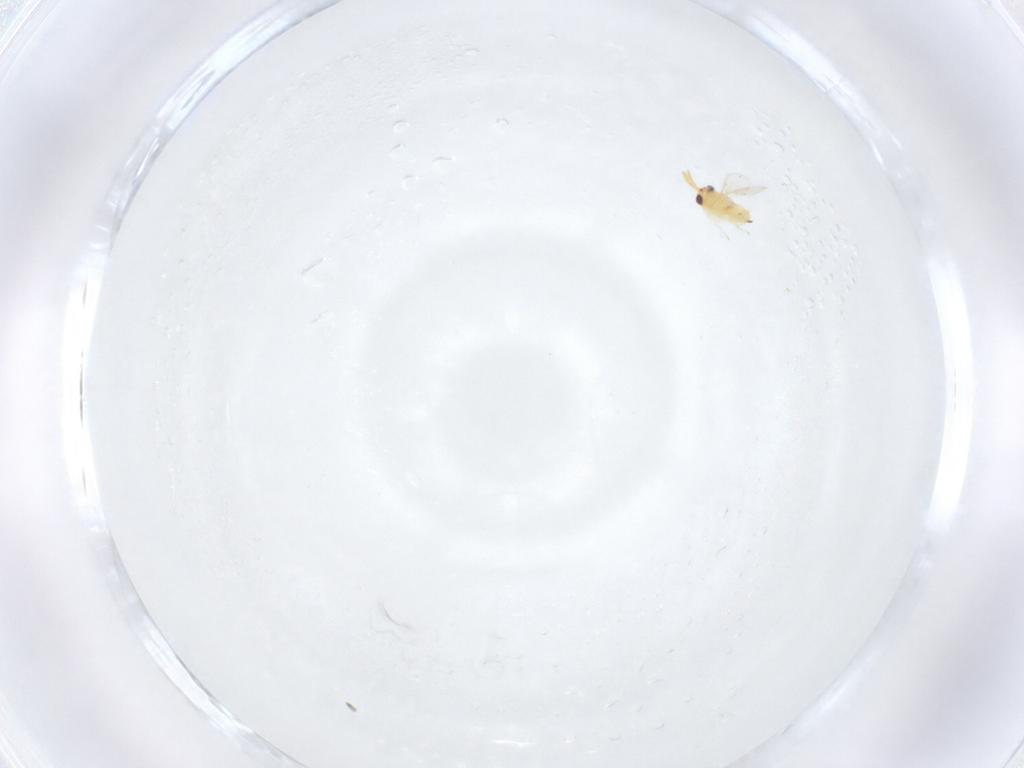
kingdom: Animalia
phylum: Arthropoda
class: Insecta
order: Hymenoptera
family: Aphelinidae
